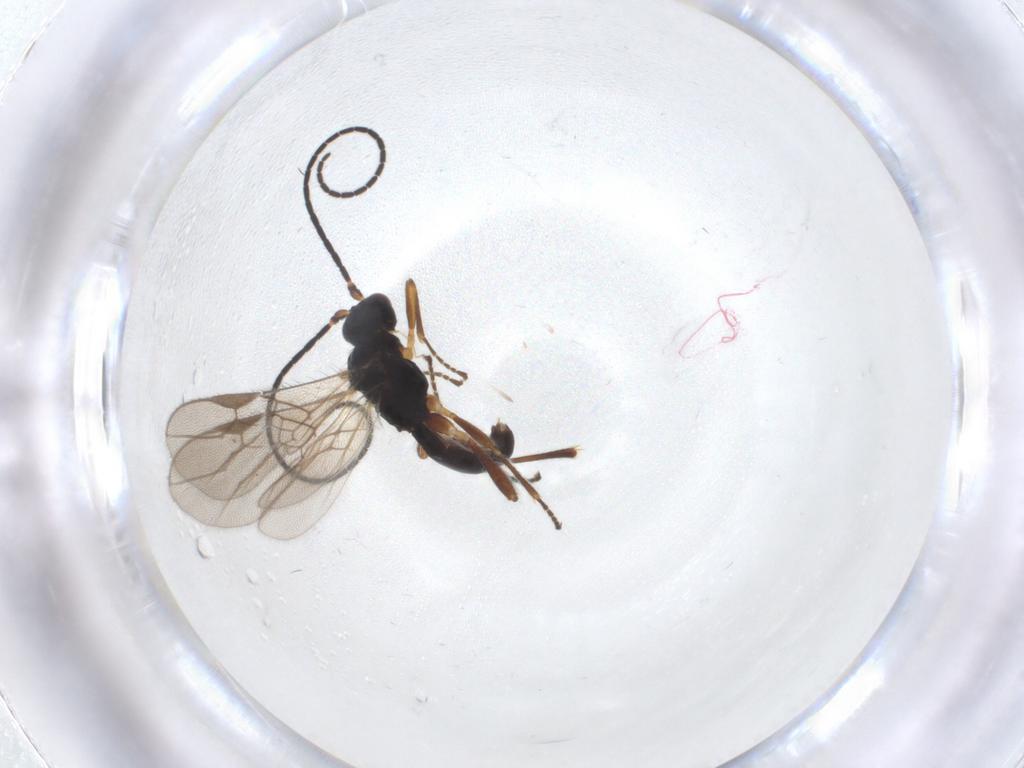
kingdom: Animalia
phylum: Arthropoda
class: Insecta
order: Hymenoptera
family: Braconidae
